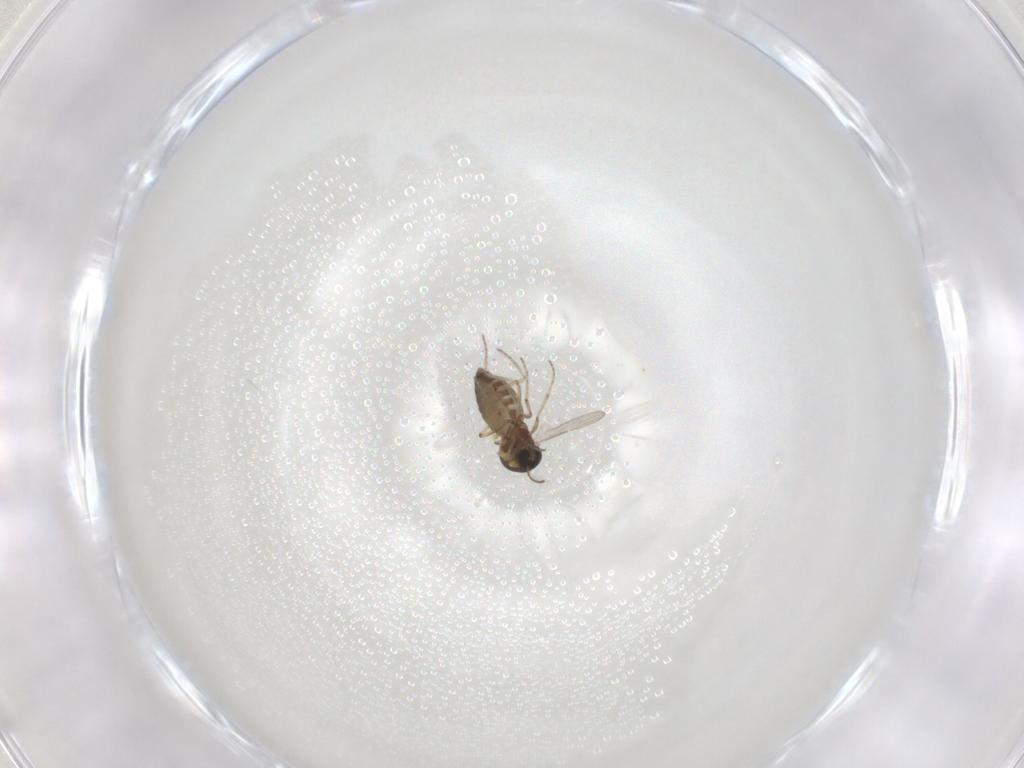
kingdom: Animalia
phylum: Arthropoda
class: Insecta
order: Diptera
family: Ceratopogonidae
